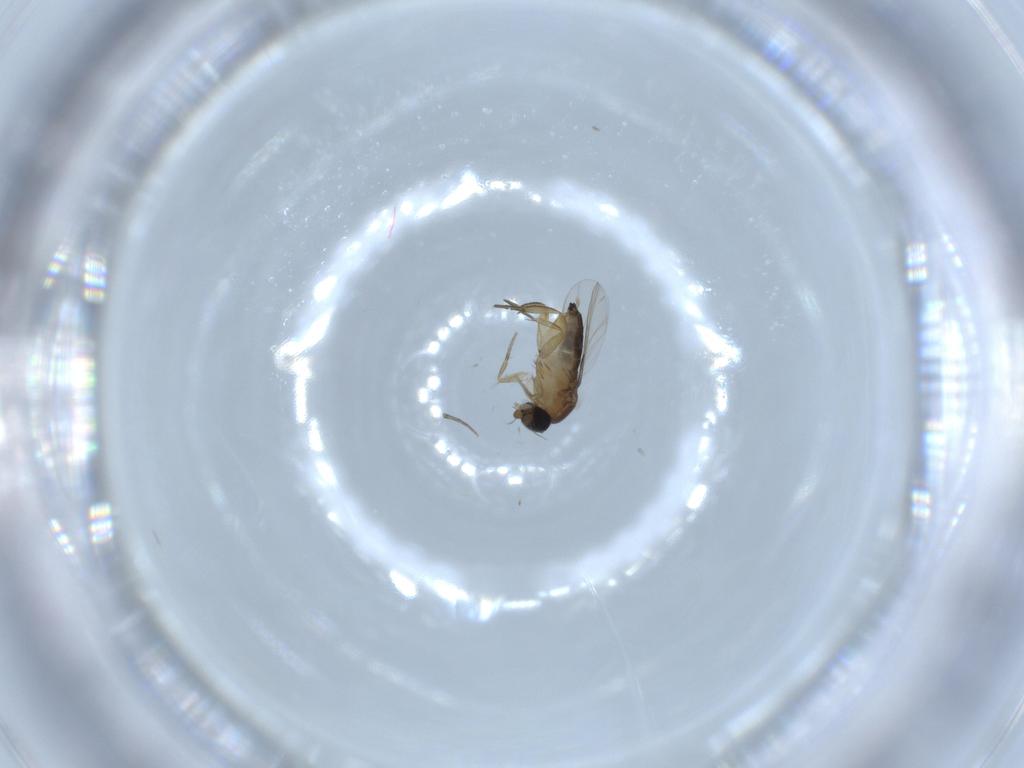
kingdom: Animalia
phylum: Arthropoda
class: Insecta
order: Diptera
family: Phoridae
